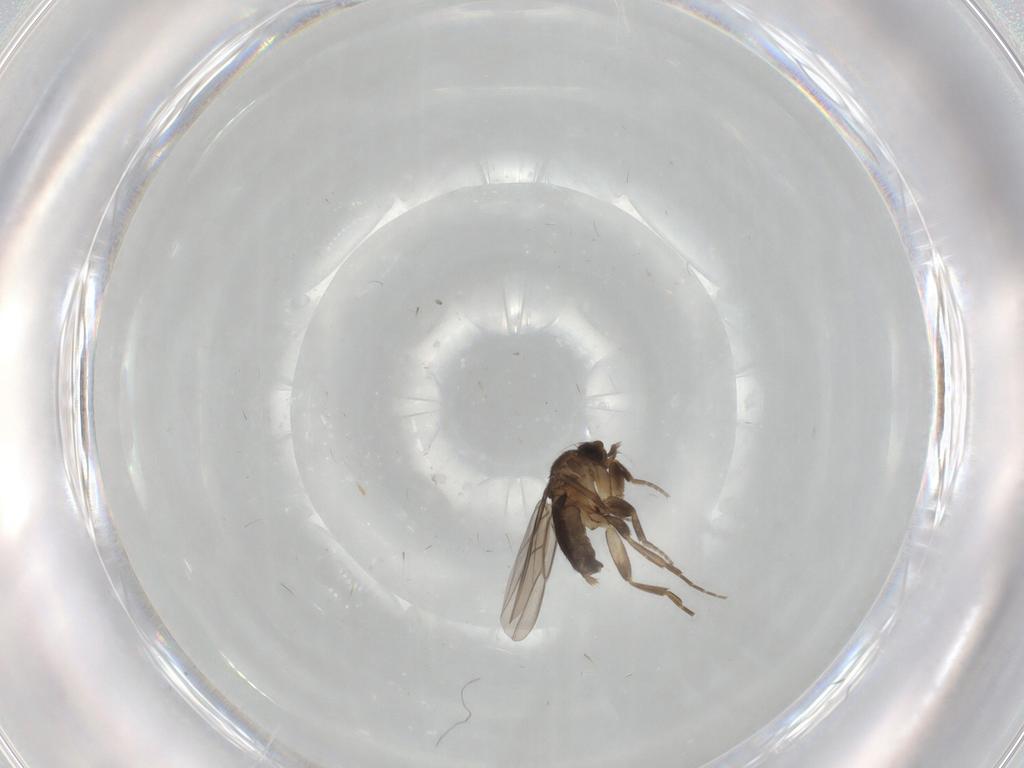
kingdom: Animalia
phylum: Arthropoda
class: Insecta
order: Diptera
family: Phoridae
